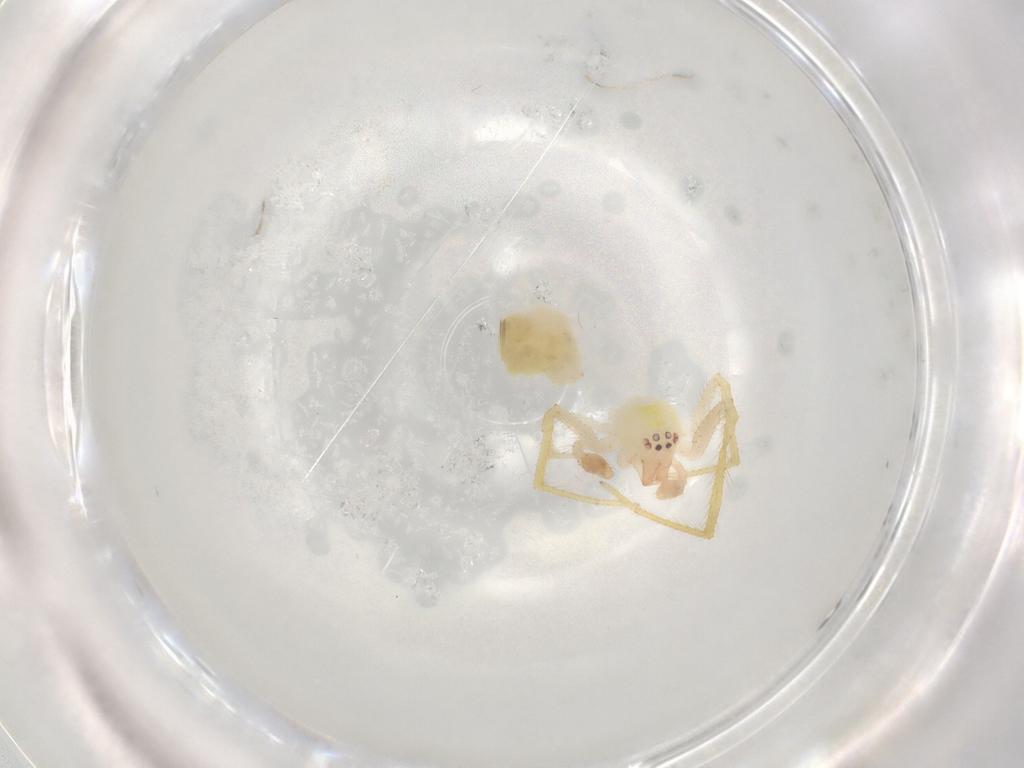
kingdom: Animalia
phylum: Arthropoda
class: Arachnida
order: Araneae
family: Theridiidae
